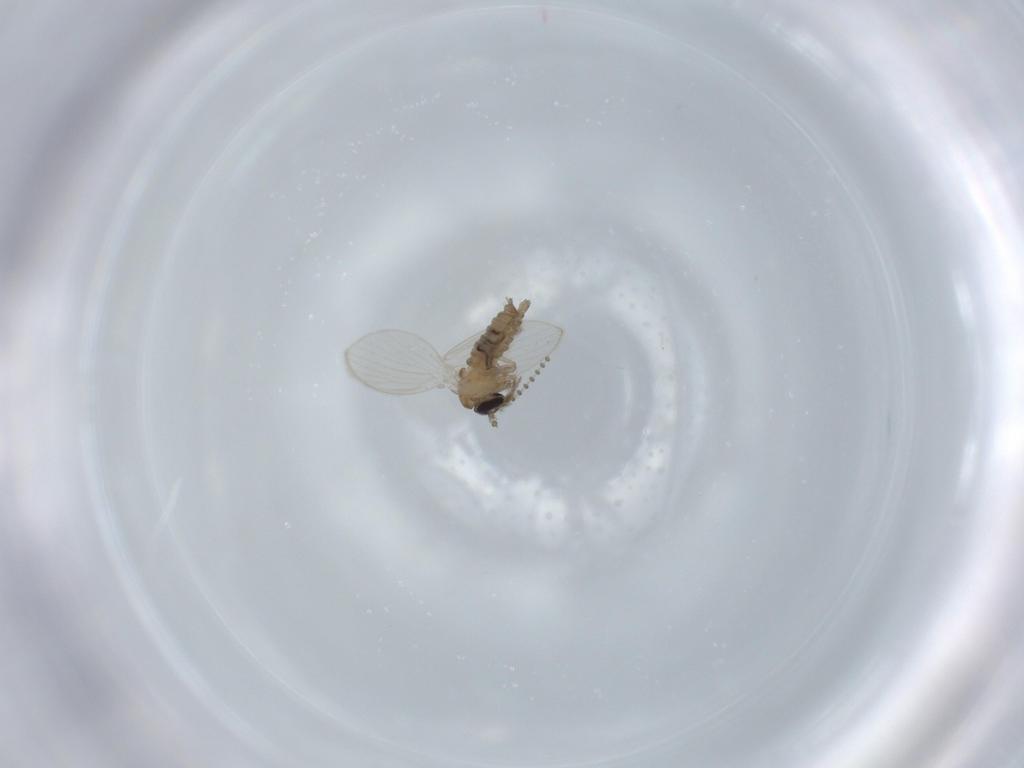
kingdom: Animalia
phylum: Arthropoda
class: Insecta
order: Diptera
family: Psychodidae
